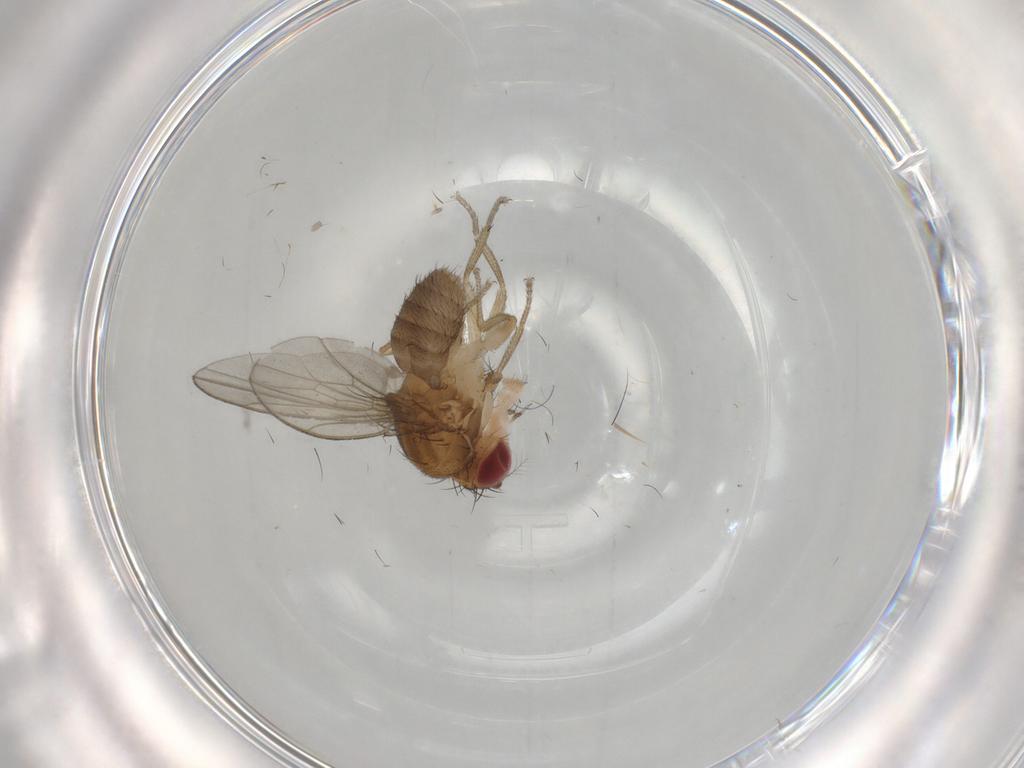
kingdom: Animalia
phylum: Arthropoda
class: Insecta
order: Diptera
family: Drosophilidae
